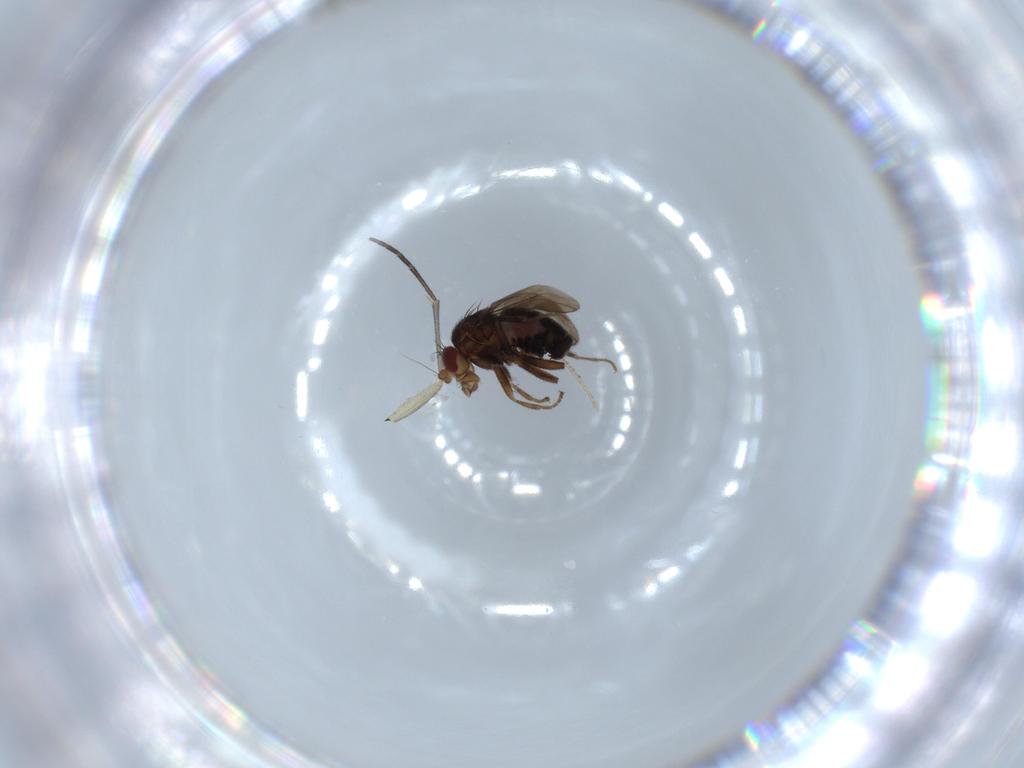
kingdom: Animalia
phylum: Arthropoda
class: Insecta
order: Diptera
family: Sciaridae
